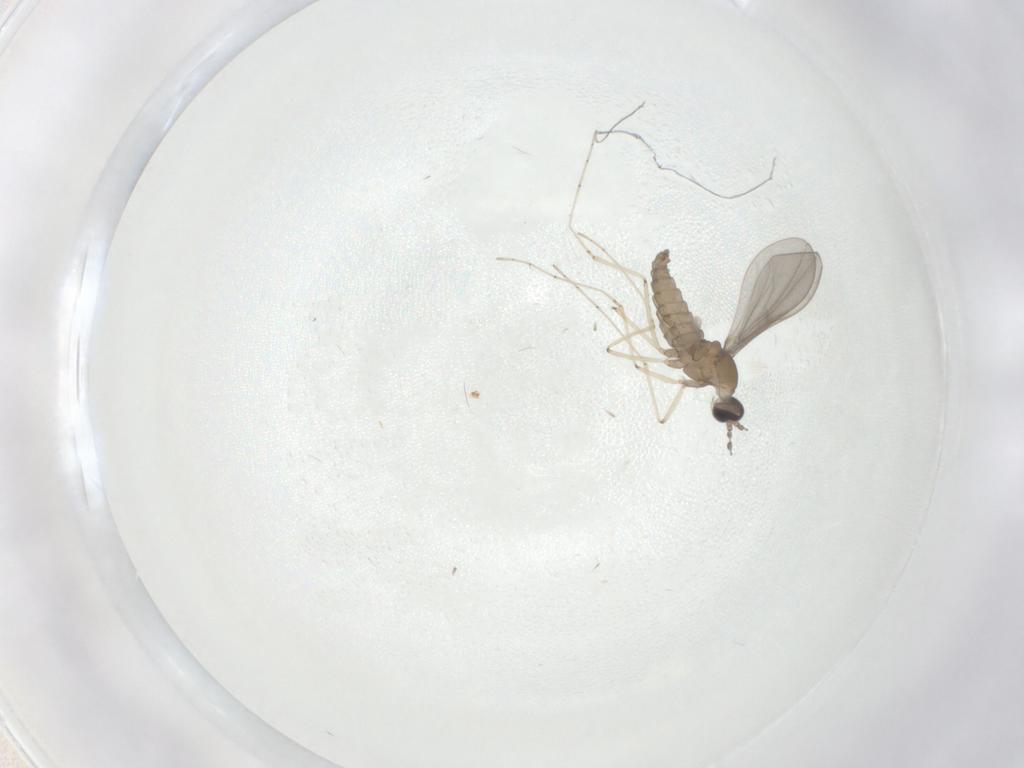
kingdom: Animalia
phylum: Arthropoda
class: Insecta
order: Diptera
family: Cecidomyiidae
